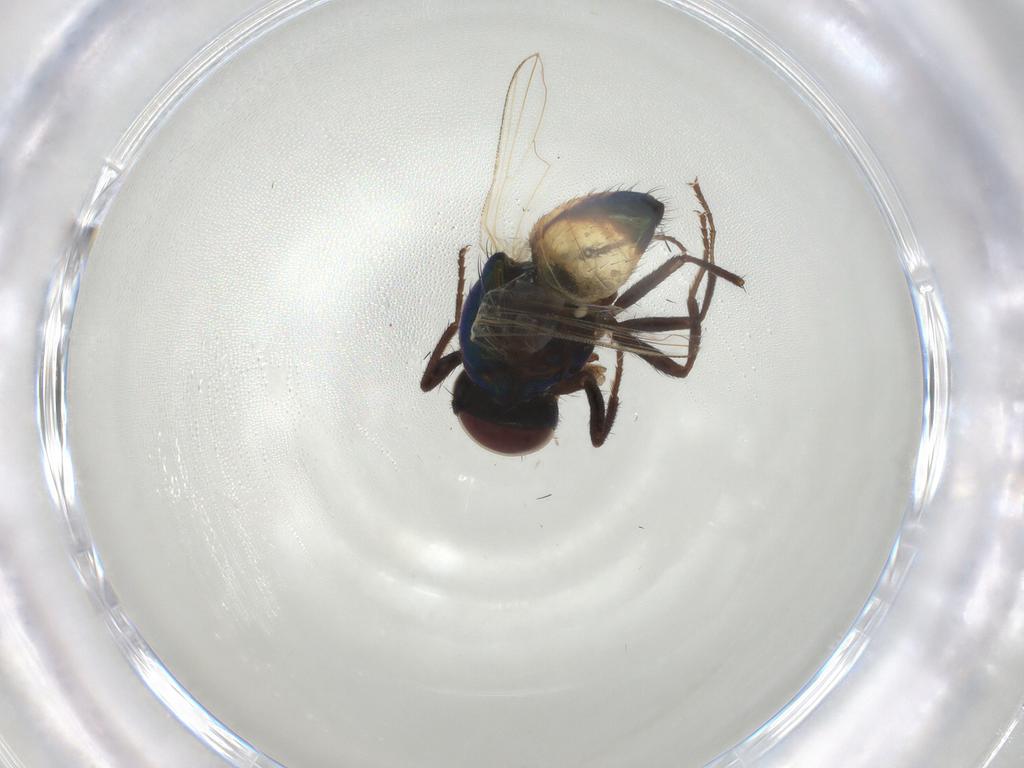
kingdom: Animalia
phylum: Arthropoda
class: Insecta
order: Diptera
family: Muscidae
